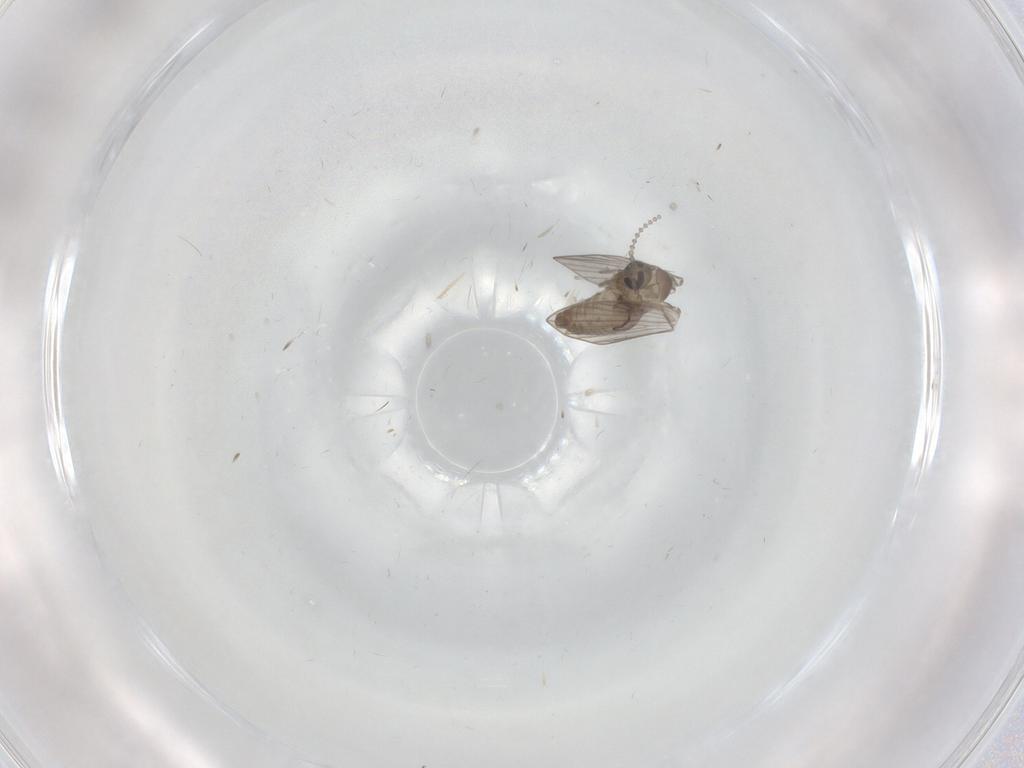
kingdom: Animalia
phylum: Arthropoda
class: Insecta
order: Diptera
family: Psychodidae
